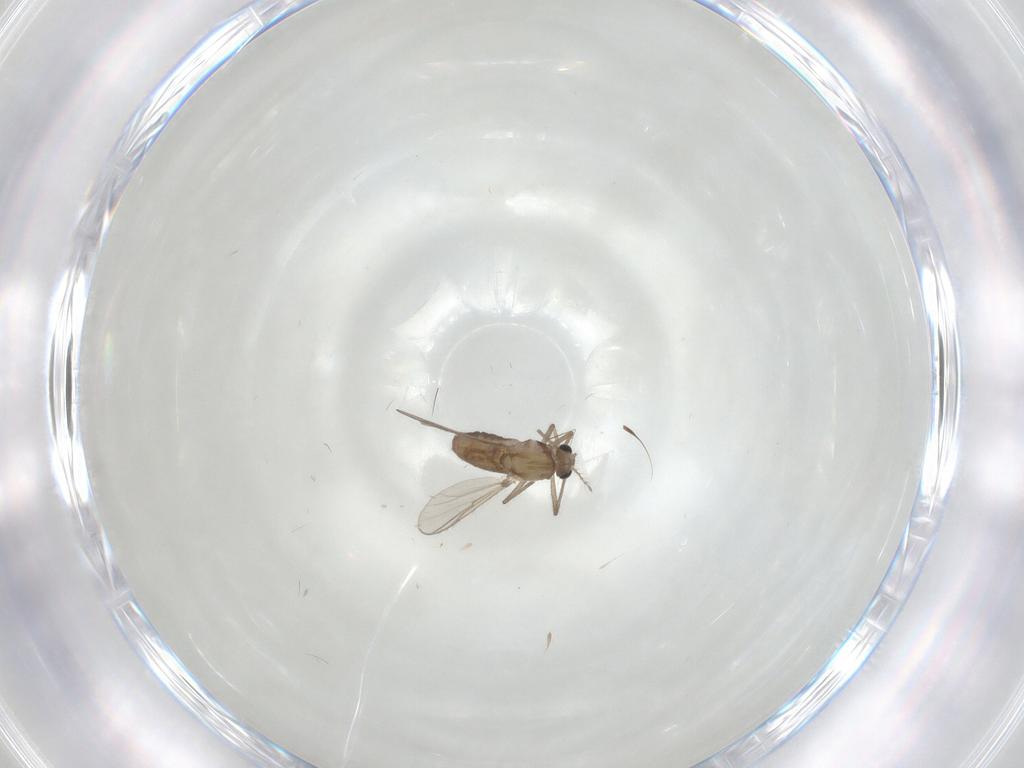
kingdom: Animalia
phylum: Arthropoda
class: Insecta
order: Diptera
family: Chironomidae
